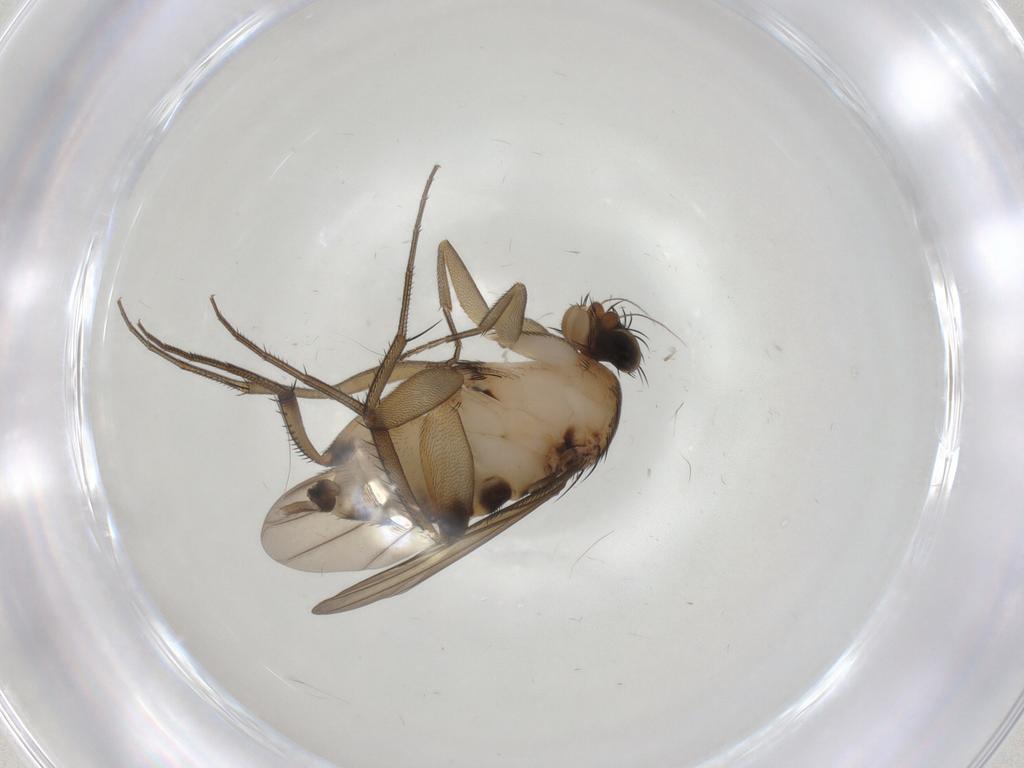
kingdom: Animalia
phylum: Arthropoda
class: Insecta
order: Diptera
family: Phoridae
